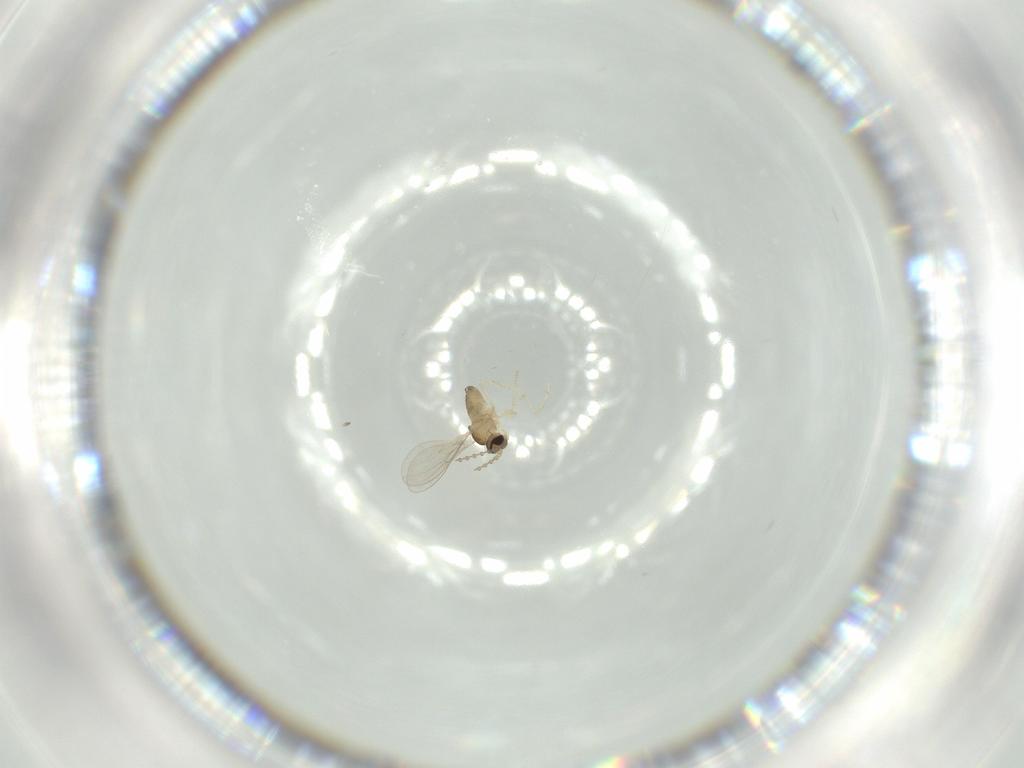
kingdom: Animalia
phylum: Arthropoda
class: Insecta
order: Diptera
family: Cecidomyiidae
